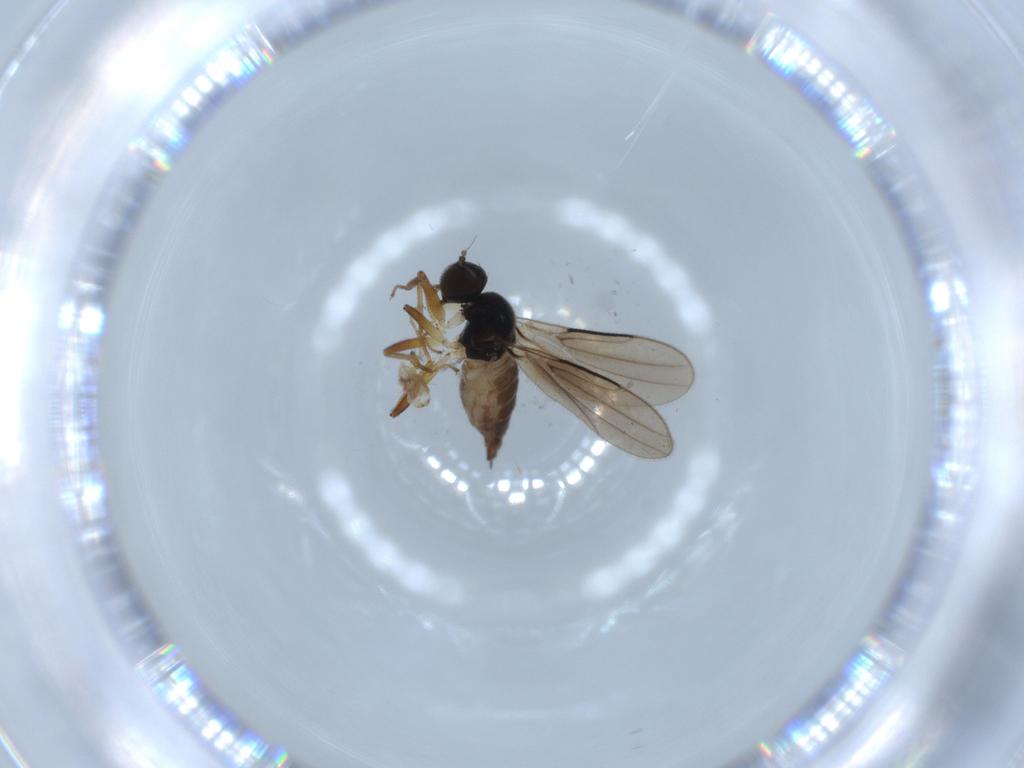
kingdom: Animalia
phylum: Arthropoda
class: Insecta
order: Diptera
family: Hybotidae
